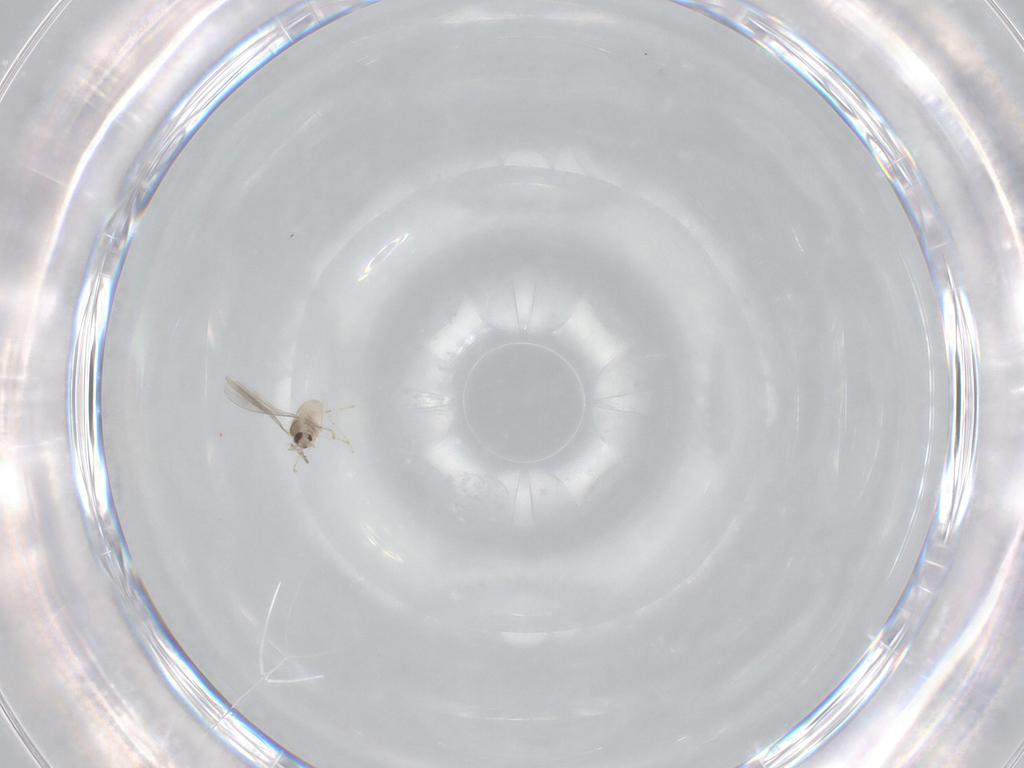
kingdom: Animalia
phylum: Arthropoda
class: Insecta
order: Diptera
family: Cecidomyiidae
